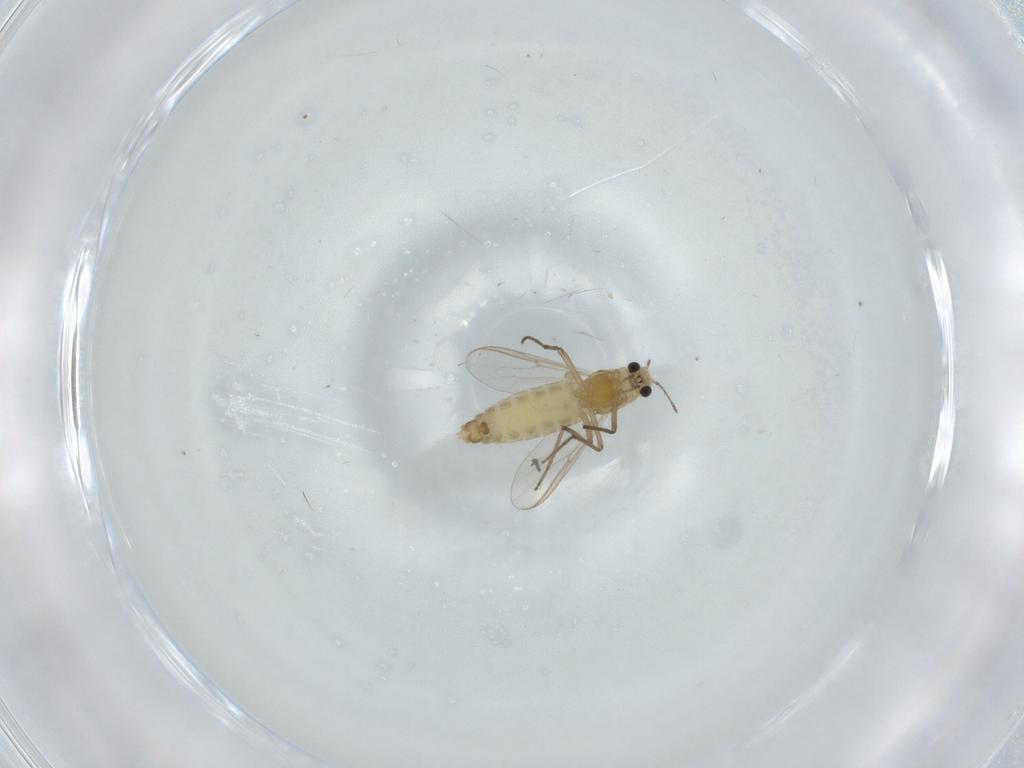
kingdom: Animalia
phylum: Arthropoda
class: Insecta
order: Diptera
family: Chironomidae
